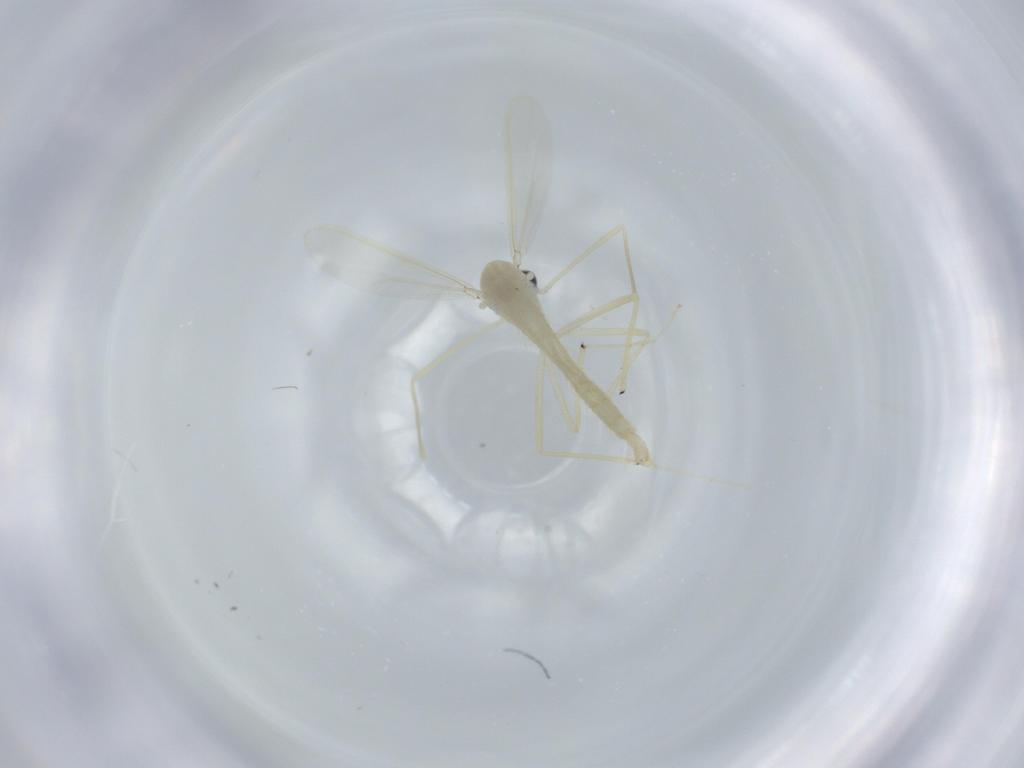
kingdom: Animalia
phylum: Arthropoda
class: Insecta
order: Diptera
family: Chironomidae
